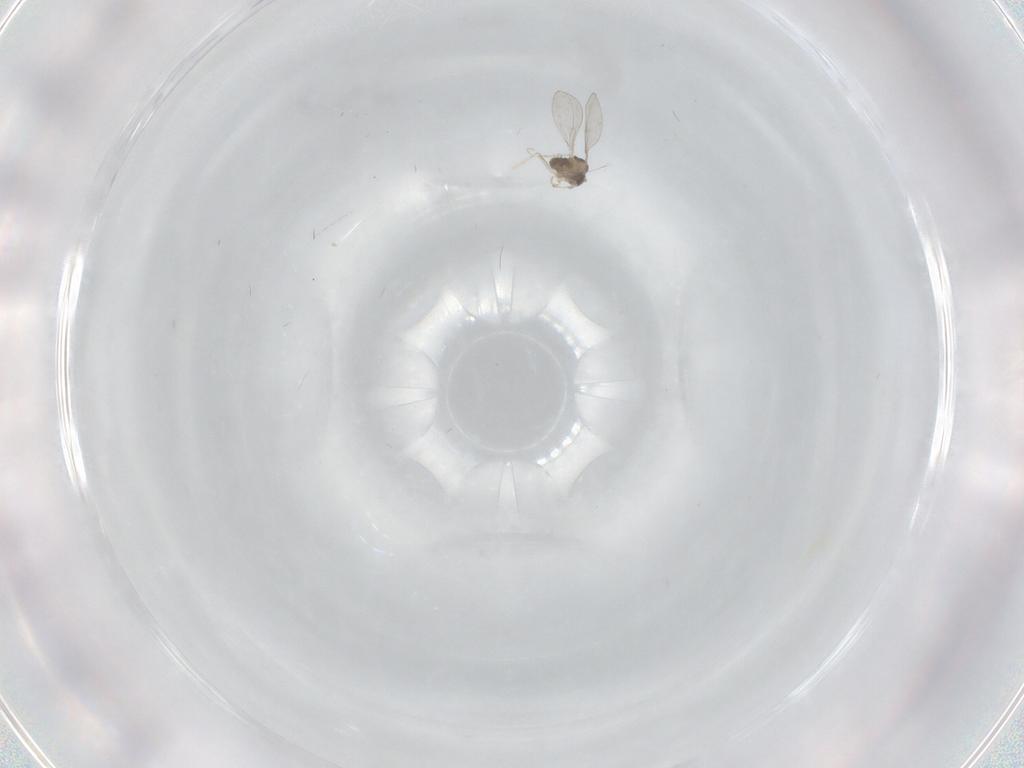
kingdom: Animalia
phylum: Arthropoda
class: Insecta
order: Diptera
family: Cecidomyiidae
